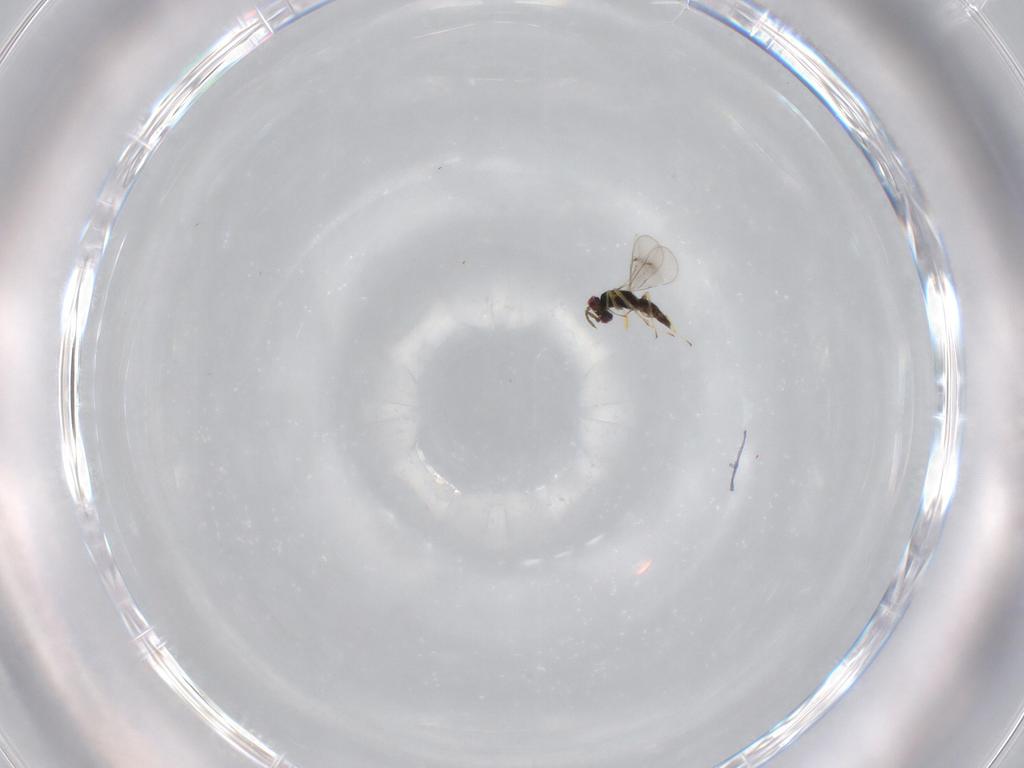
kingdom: Animalia
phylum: Arthropoda
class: Insecta
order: Hymenoptera
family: Eulophidae
